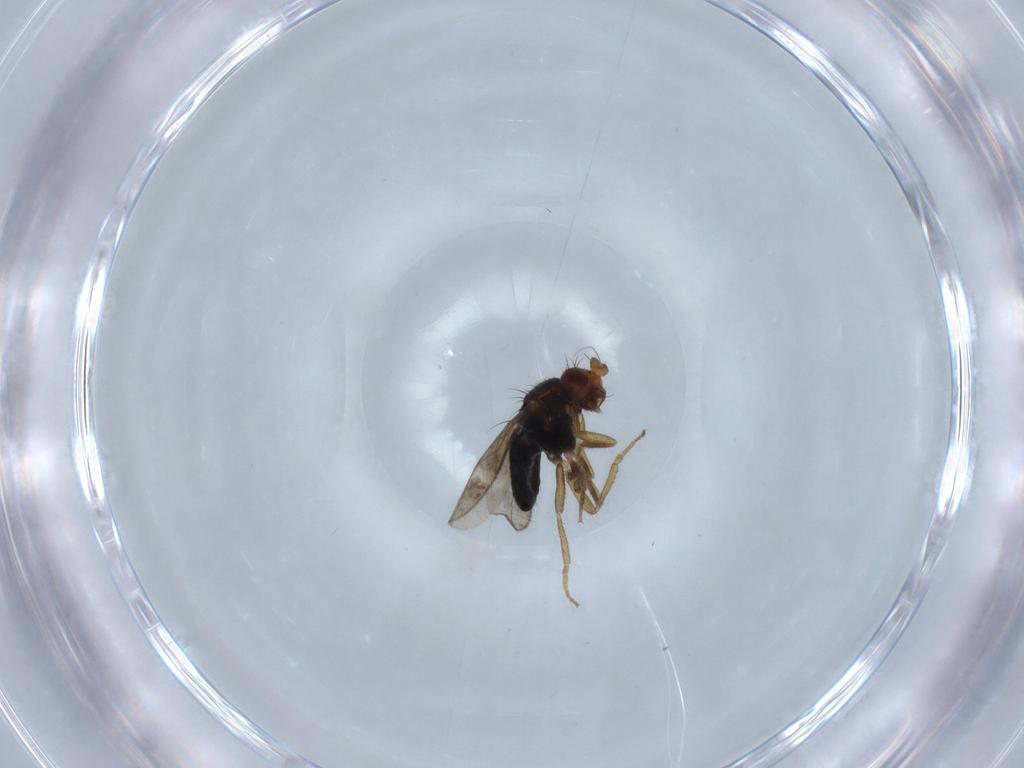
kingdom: Animalia
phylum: Arthropoda
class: Insecta
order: Diptera
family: Sphaeroceridae
